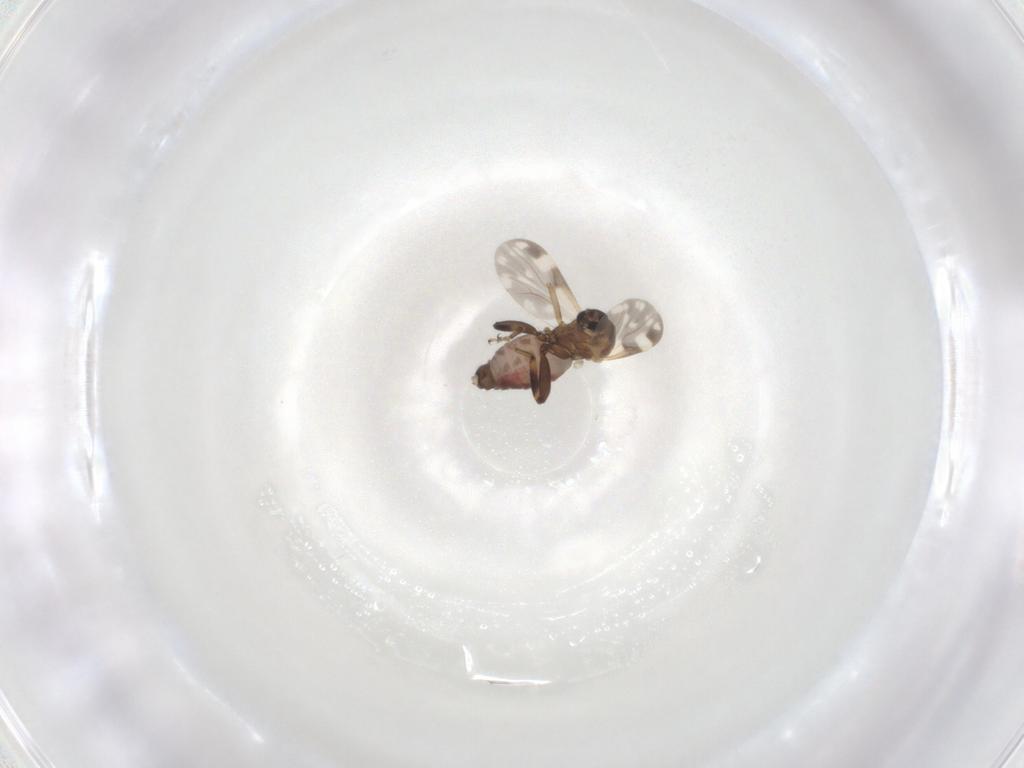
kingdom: Animalia
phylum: Arthropoda
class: Insecta
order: Diptera
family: Ceratopogonidae
